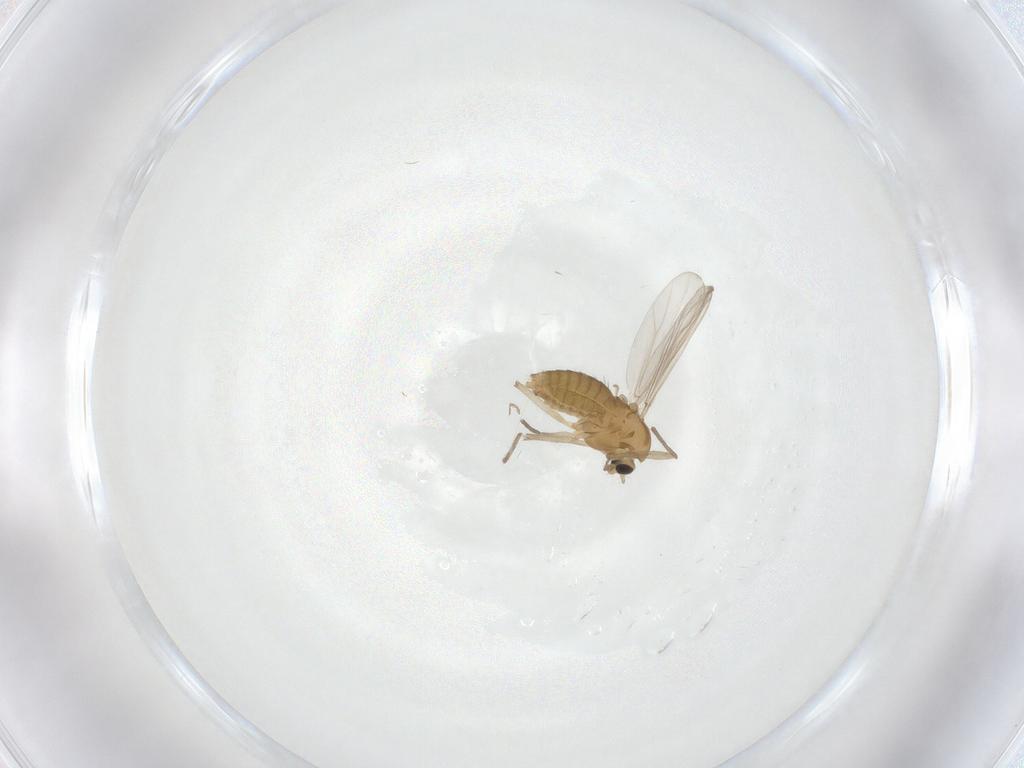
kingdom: Animalia
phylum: Arthropoda
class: Insecta
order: Diptera
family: Chironomidae
